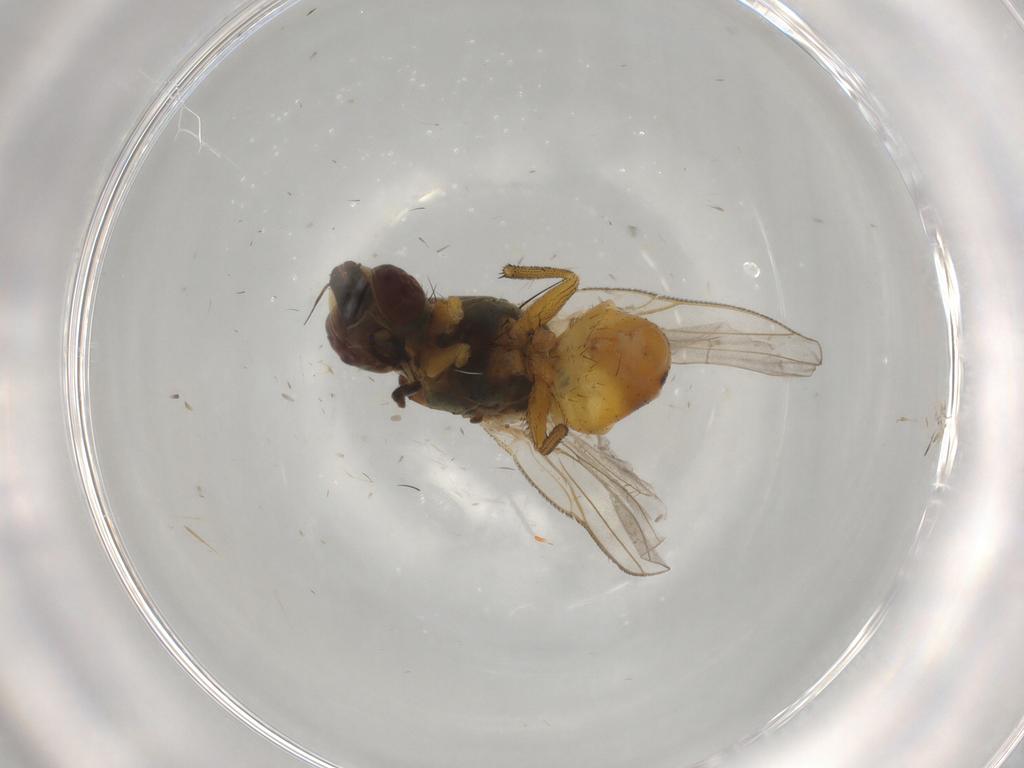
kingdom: Animalia
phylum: Arthropoda
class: Insecta
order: Diptera
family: Muscidae
